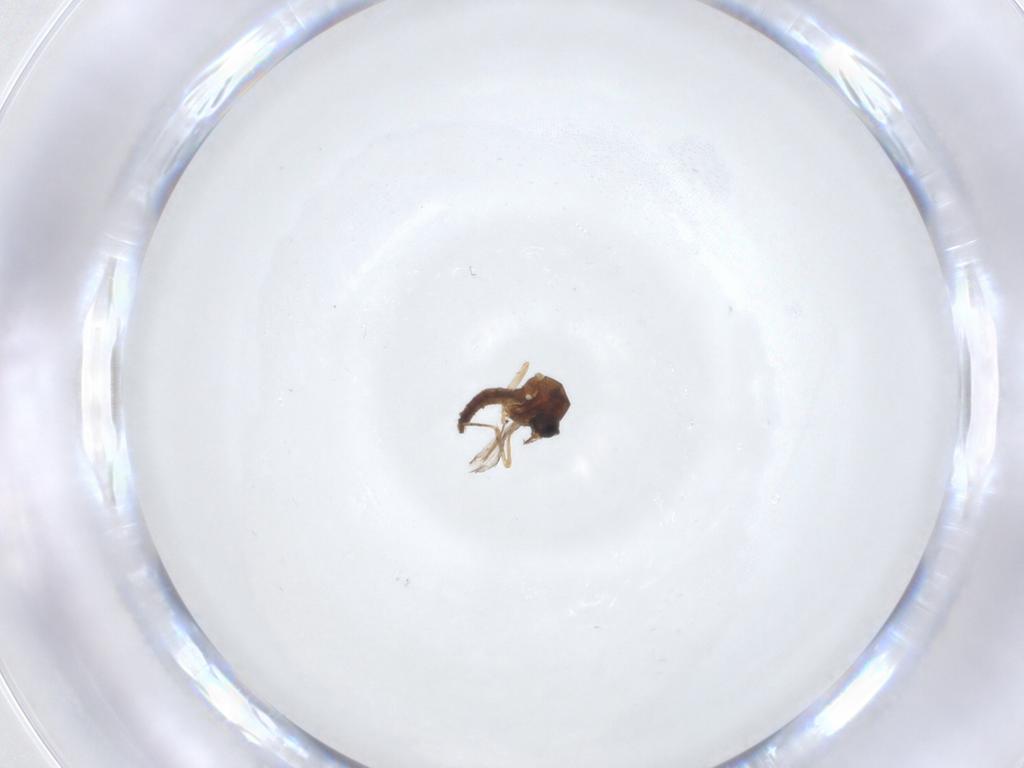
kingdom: Animalia
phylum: Arthropoda
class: Insecta
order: Diptera
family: Ceratopogonidae
